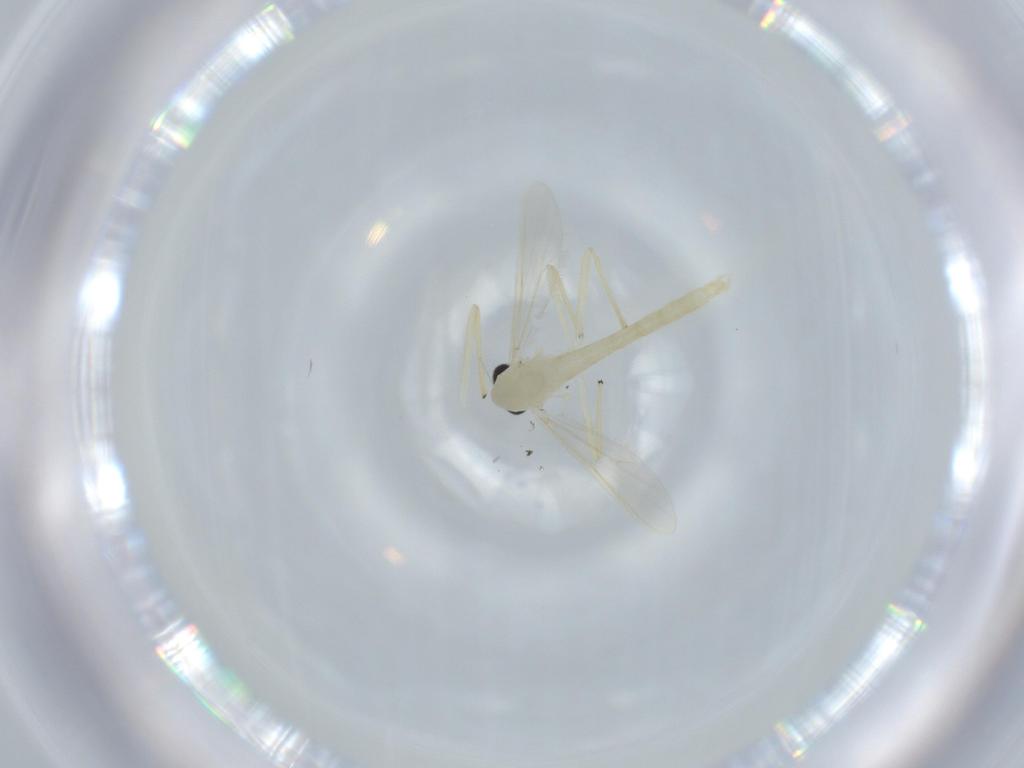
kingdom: Animalia
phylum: Arthropoda
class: Insecta
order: Diptera
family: Chironomidae
